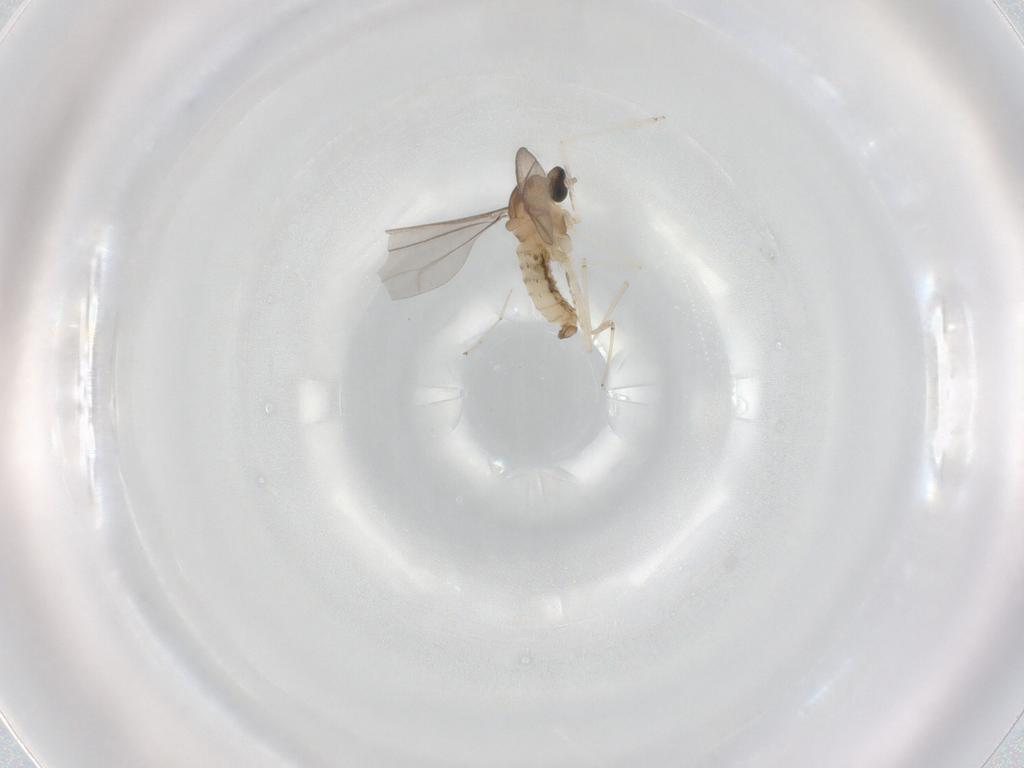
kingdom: Animalia
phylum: Arthropoda
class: Insecta
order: Diptera
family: Cecidomyiidae
